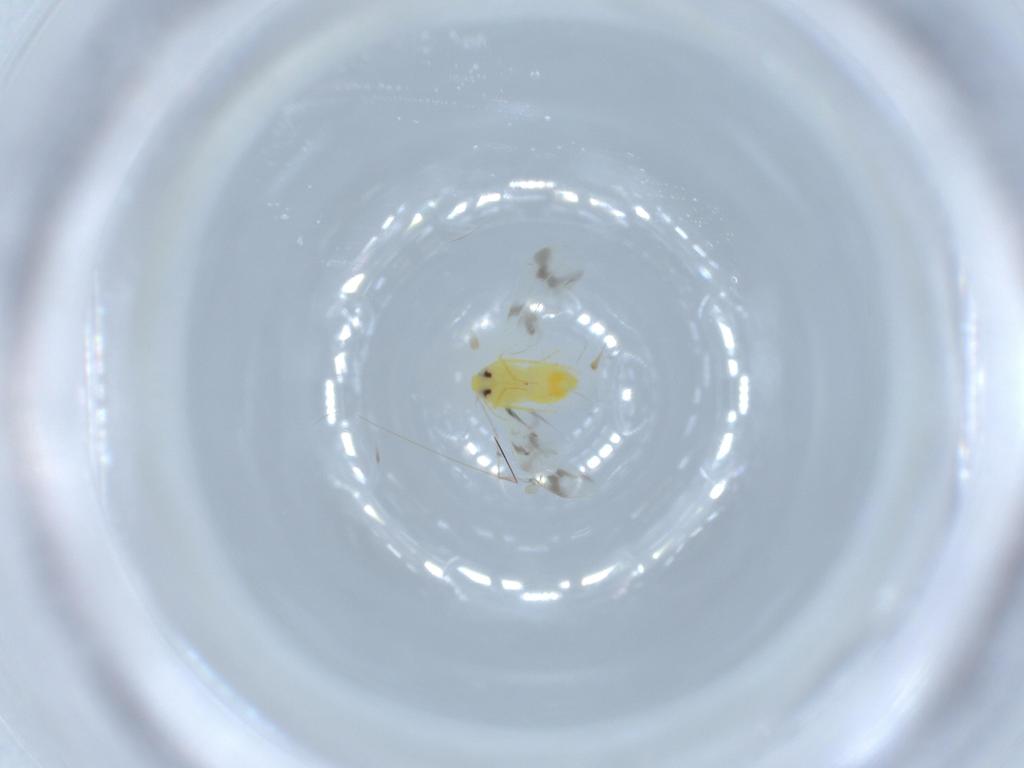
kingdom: Animalia
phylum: Arthropoda
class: Insecta
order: Hemiptera
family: Aleyrodidae
